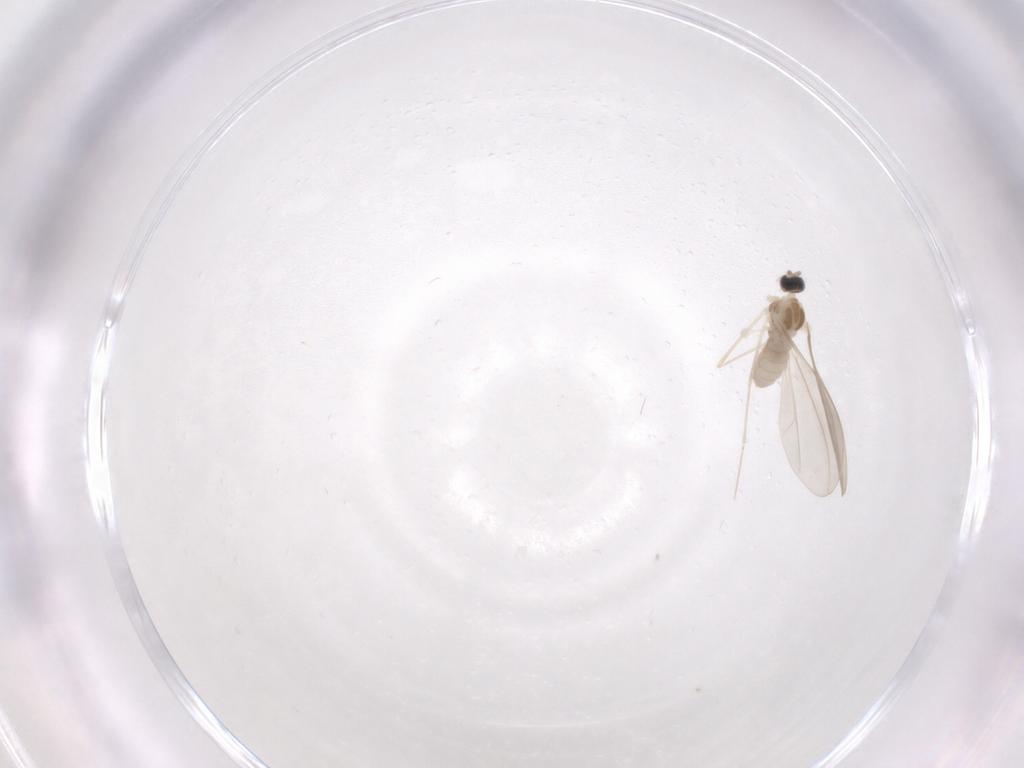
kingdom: Animalia
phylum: Arthropoda
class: Insecta
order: Diptera
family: Cecidomyiidae
